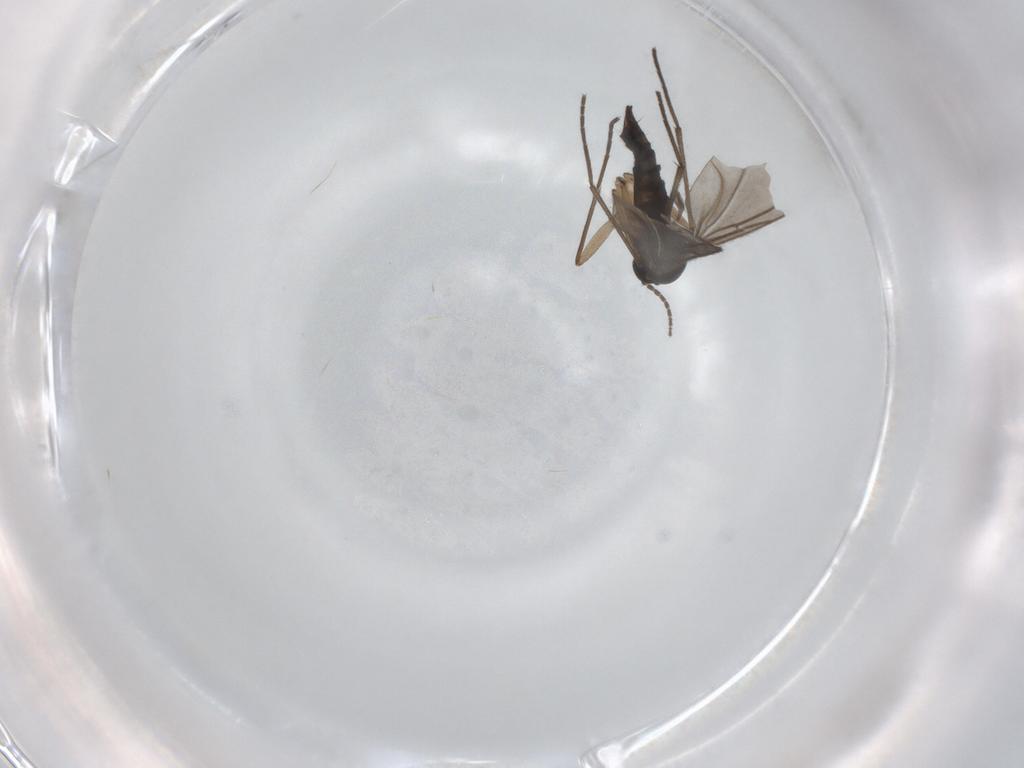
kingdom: Animalia
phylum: Arthropoda
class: Insecta
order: Diptera
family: Sciaridae
